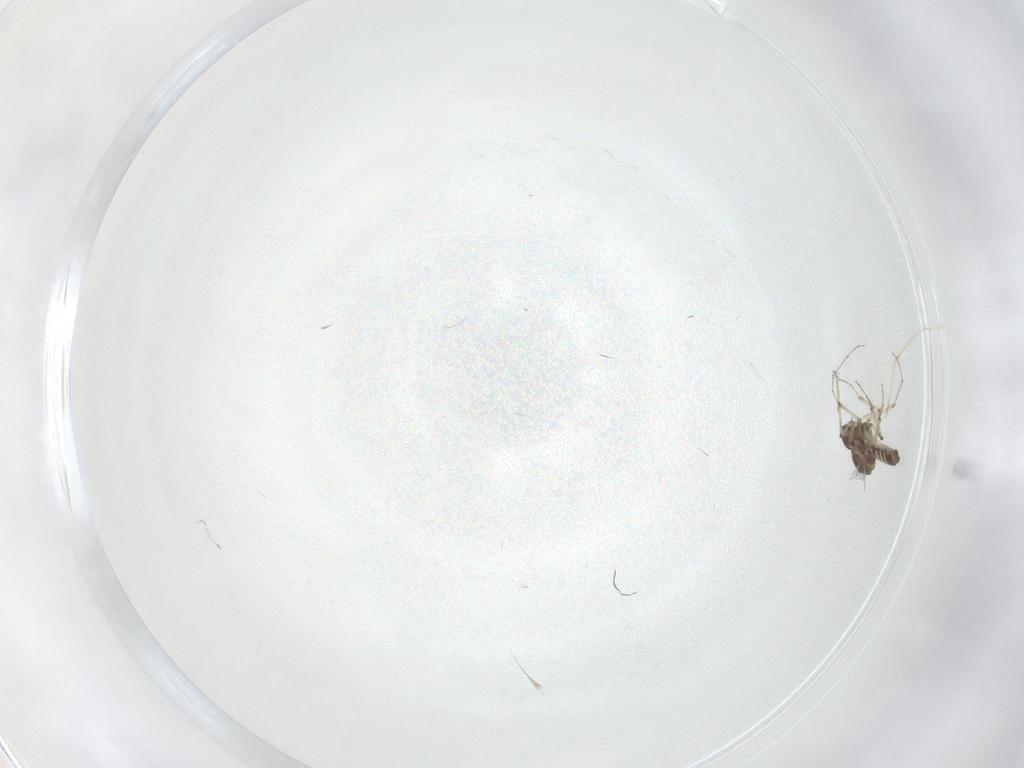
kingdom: Animalia
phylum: Arthropoda
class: Insecta
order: Diptera
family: Ceratopogonidae
